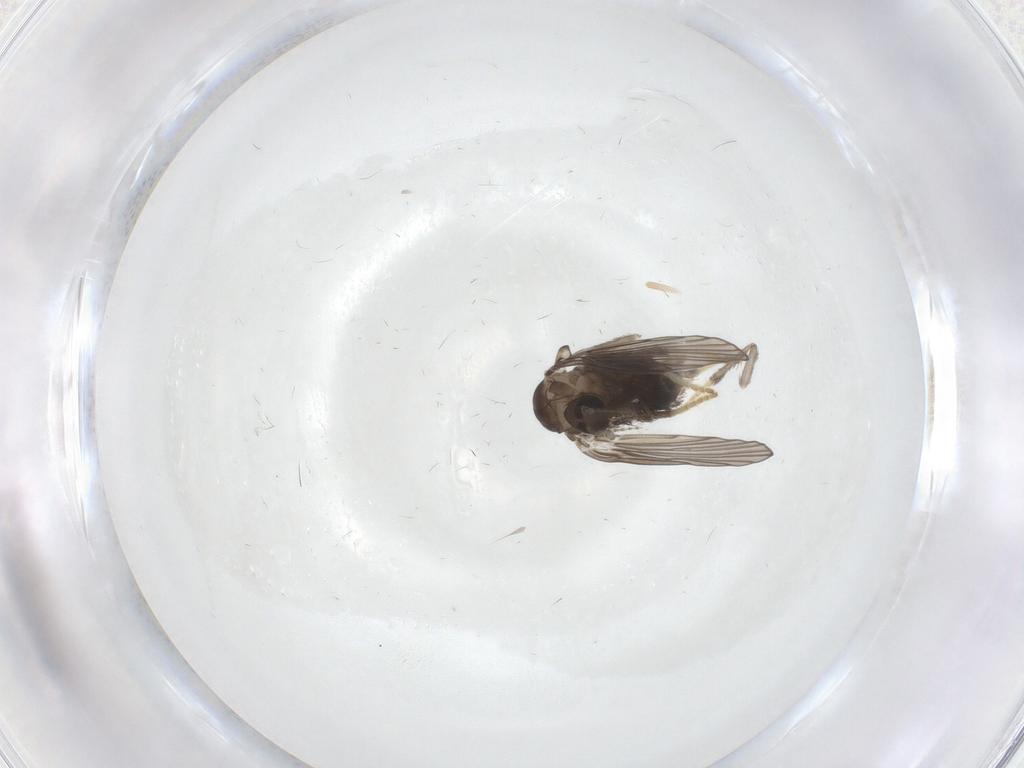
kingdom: Animalia
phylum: Arthropoda
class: Insecta
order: Diptera
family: Psychodidae
